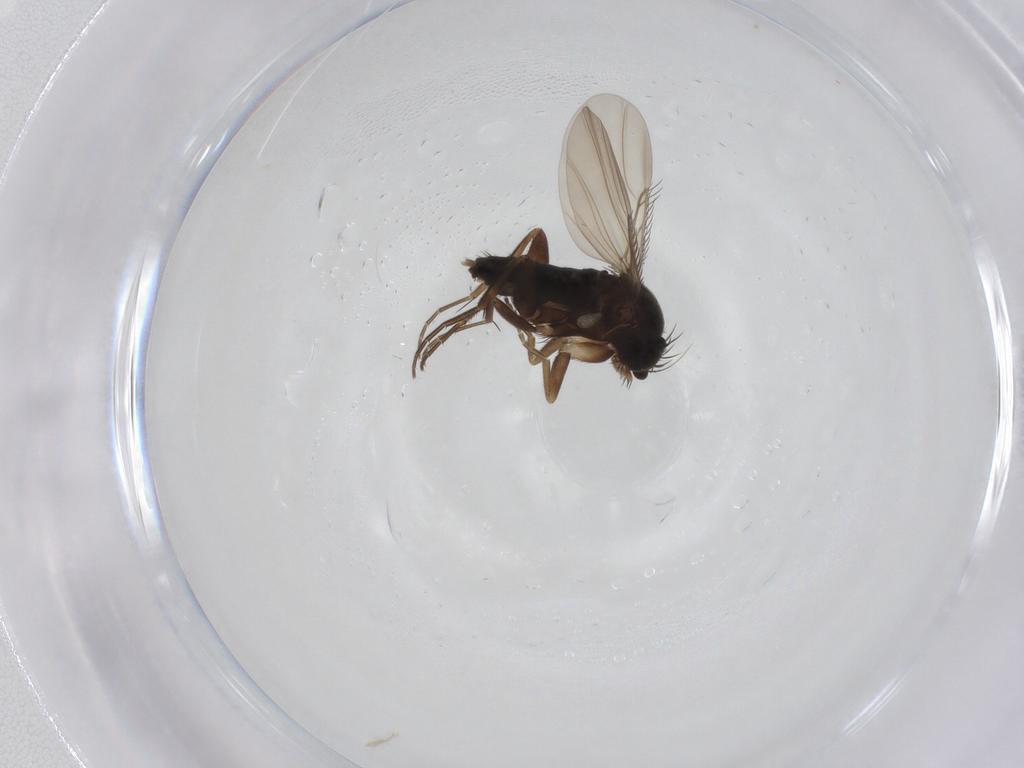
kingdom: Animalia
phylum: Arthropoda
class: Insecta
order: Diptera
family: Phoridae
